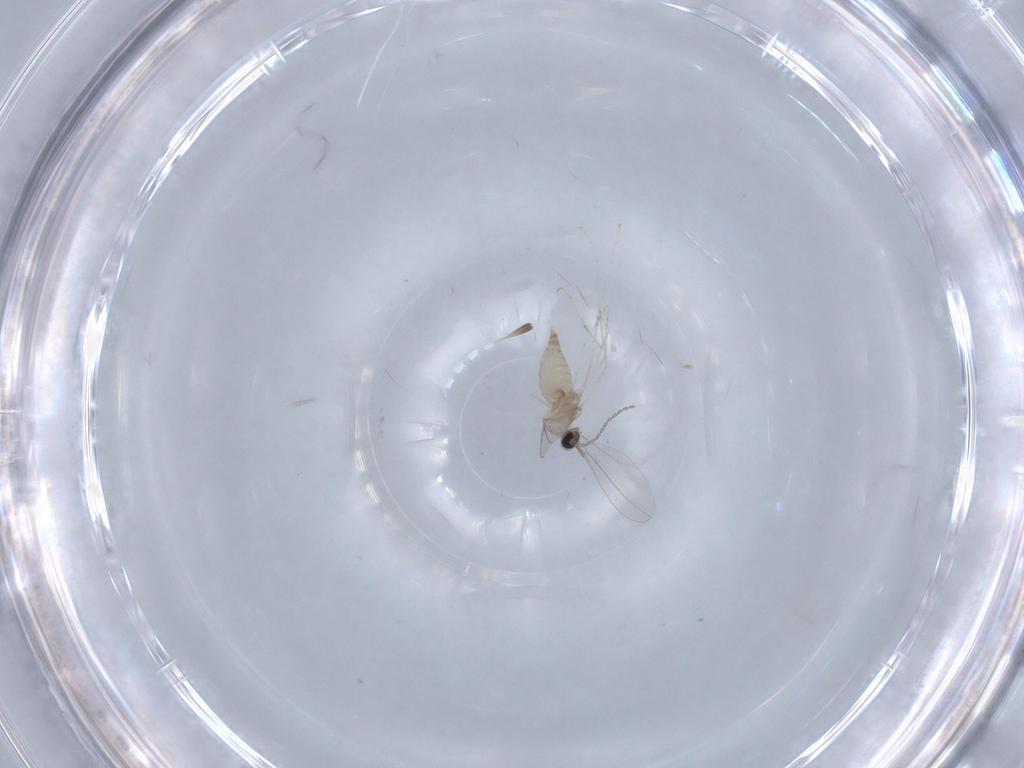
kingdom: Animalia
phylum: Arthropoda
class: Insecta
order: Diptera
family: Cecidomyiidae
